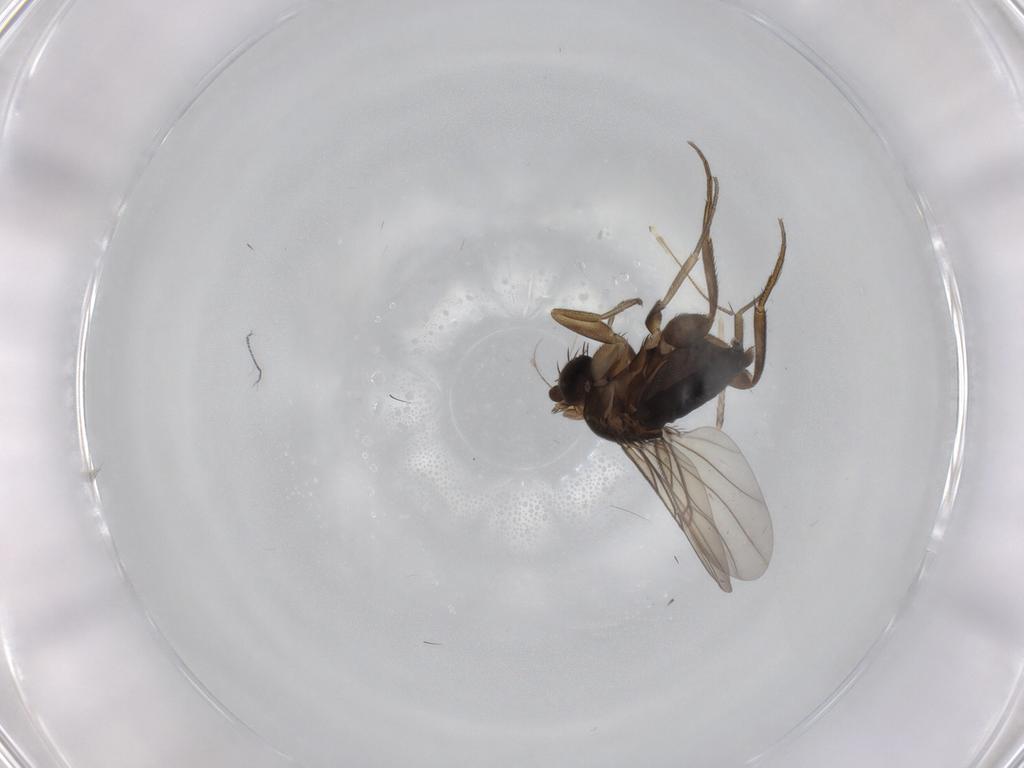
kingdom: Animalia
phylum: Arthropoda
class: Insecta
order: Diptera
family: Phoridae
